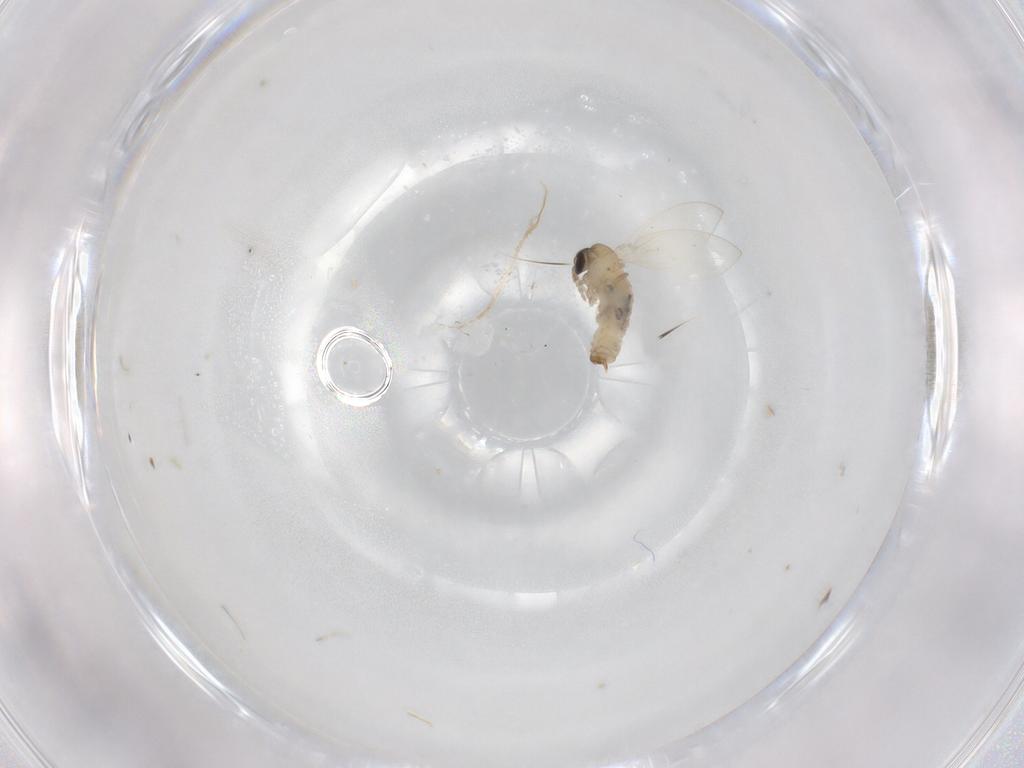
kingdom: Animalia
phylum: Arthropoda
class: Insecta
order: Diptera
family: Psychodidae
